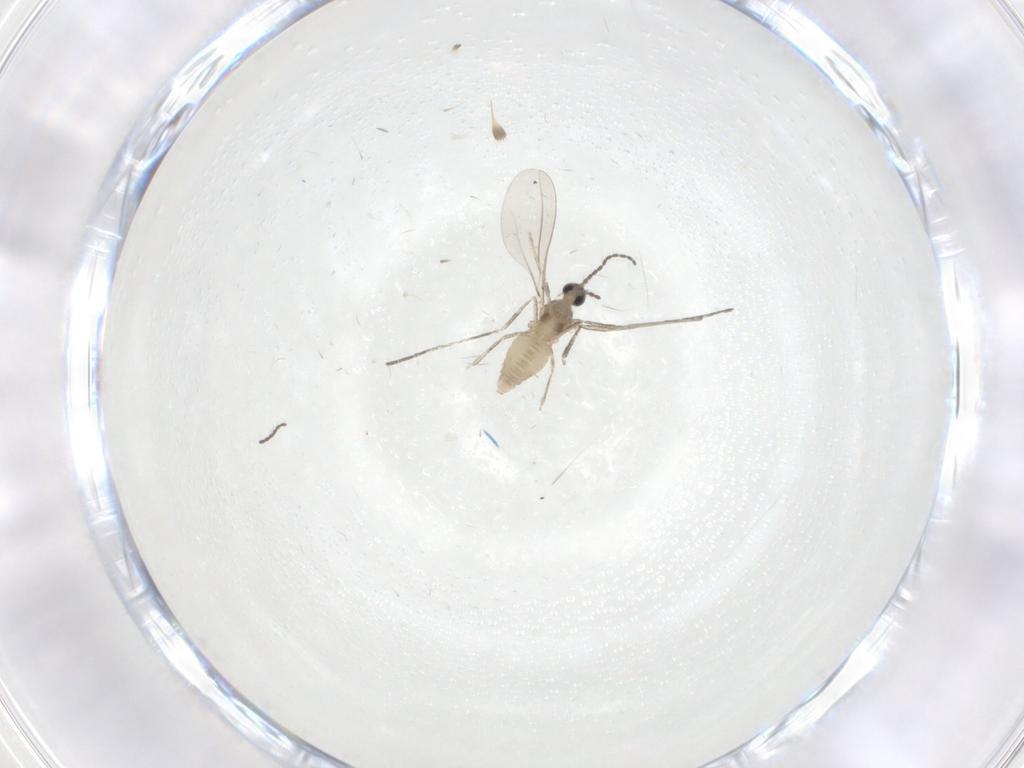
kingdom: Animalia
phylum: Arthropoda
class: Insecta
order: Diptera
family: Cecidomyiidae
